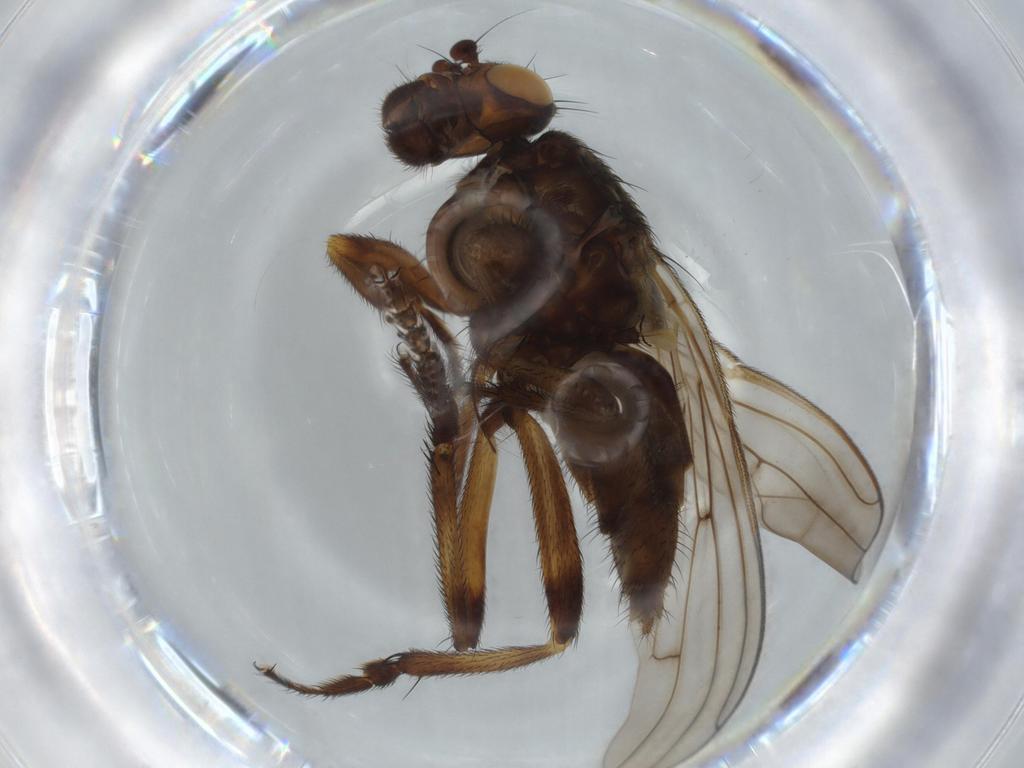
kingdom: Animalia
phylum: Arthropoda
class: Insecta
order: Diptera
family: Sphaeroceridae
